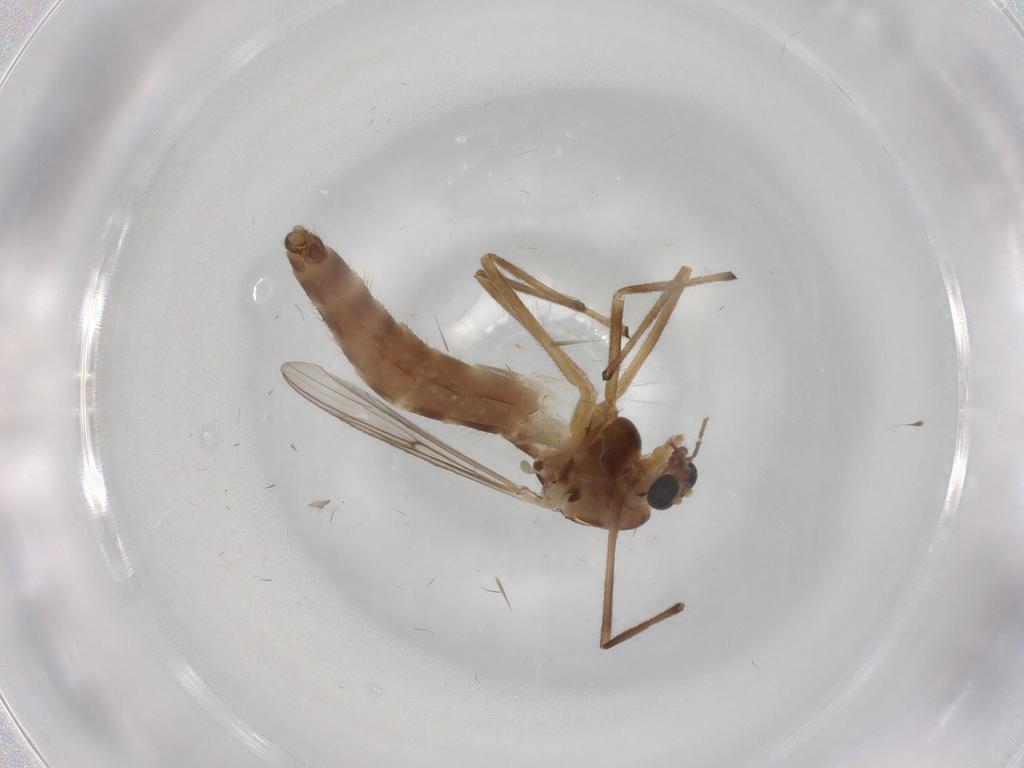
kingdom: Animalia
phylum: Arthropoda
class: Insecta
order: Diptera
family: Chironomidae
